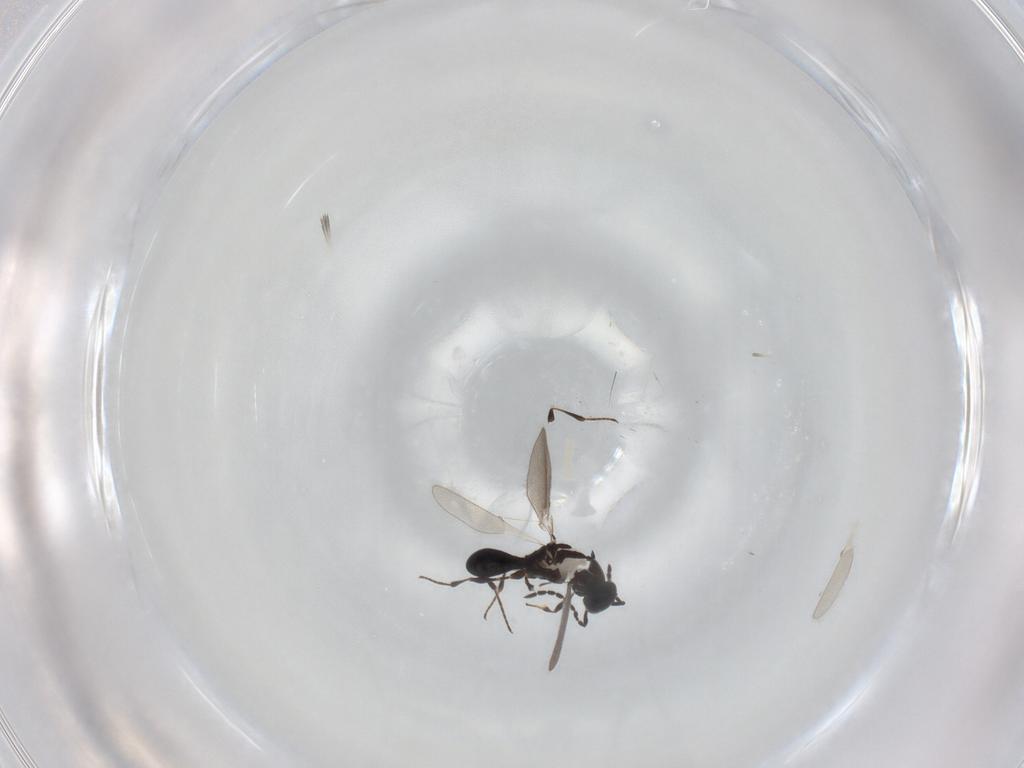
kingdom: Animalia
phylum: Arthropoda
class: Insecta
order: Hymenoptera
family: Platygastridae
